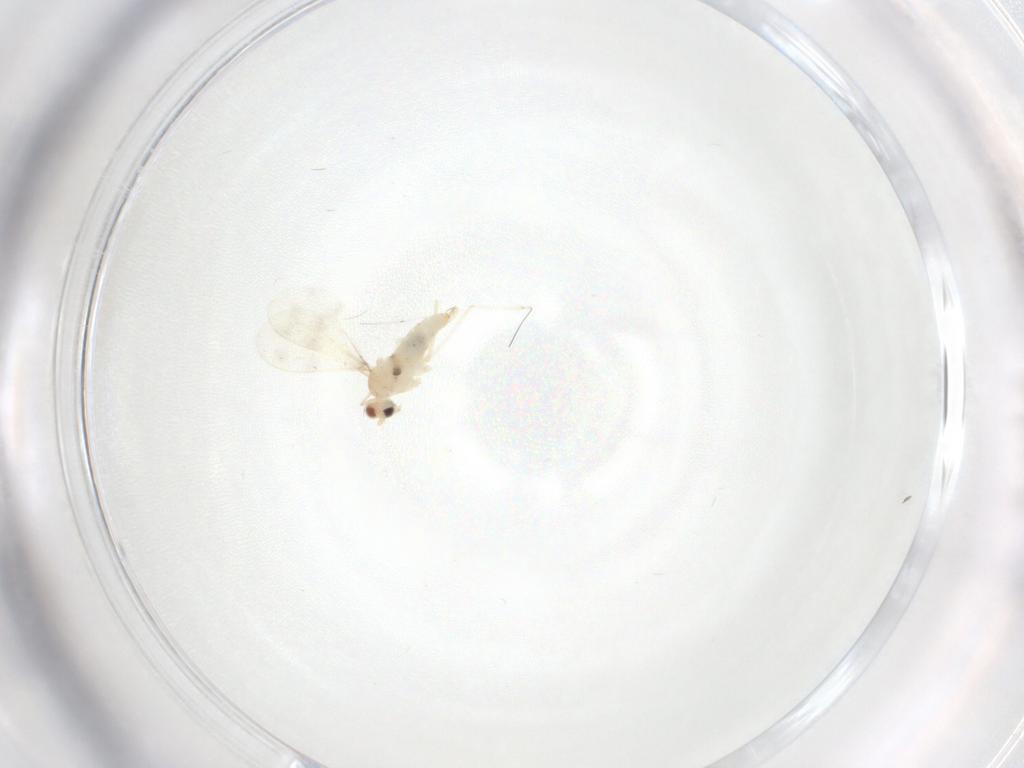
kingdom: Animalia
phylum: Arthropoda
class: Insecta
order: Diptera
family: Cecidomyiidae
